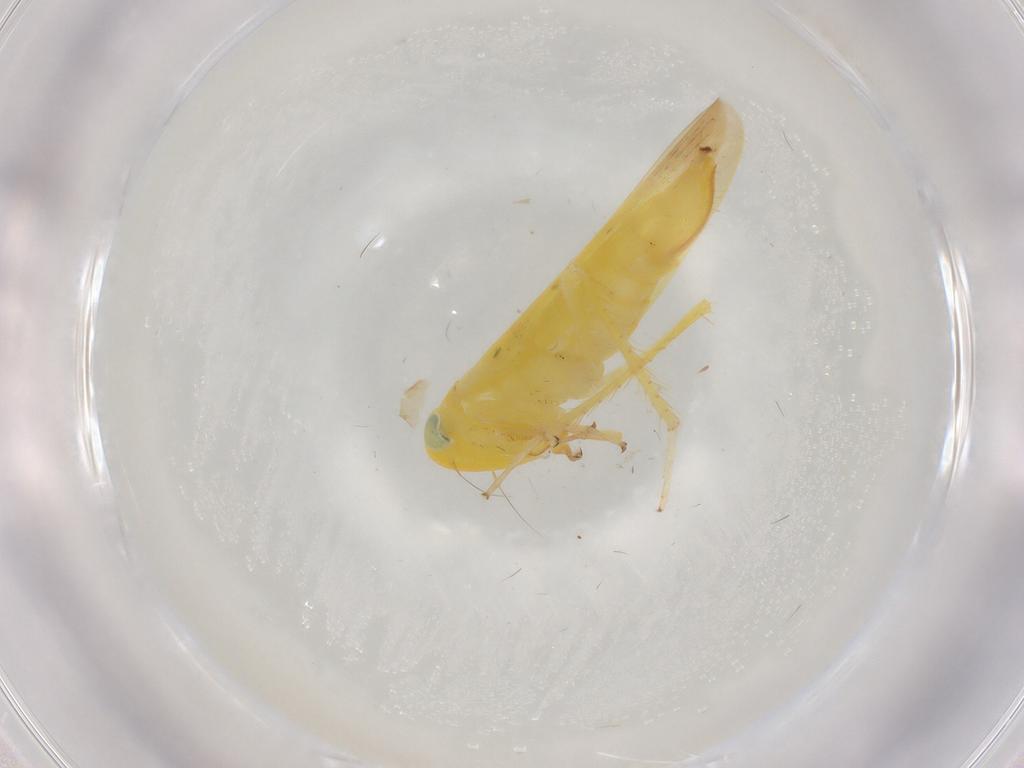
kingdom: Animalia
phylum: Arthropoda
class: Insecta
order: Hemiptera
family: Cicadellidae
